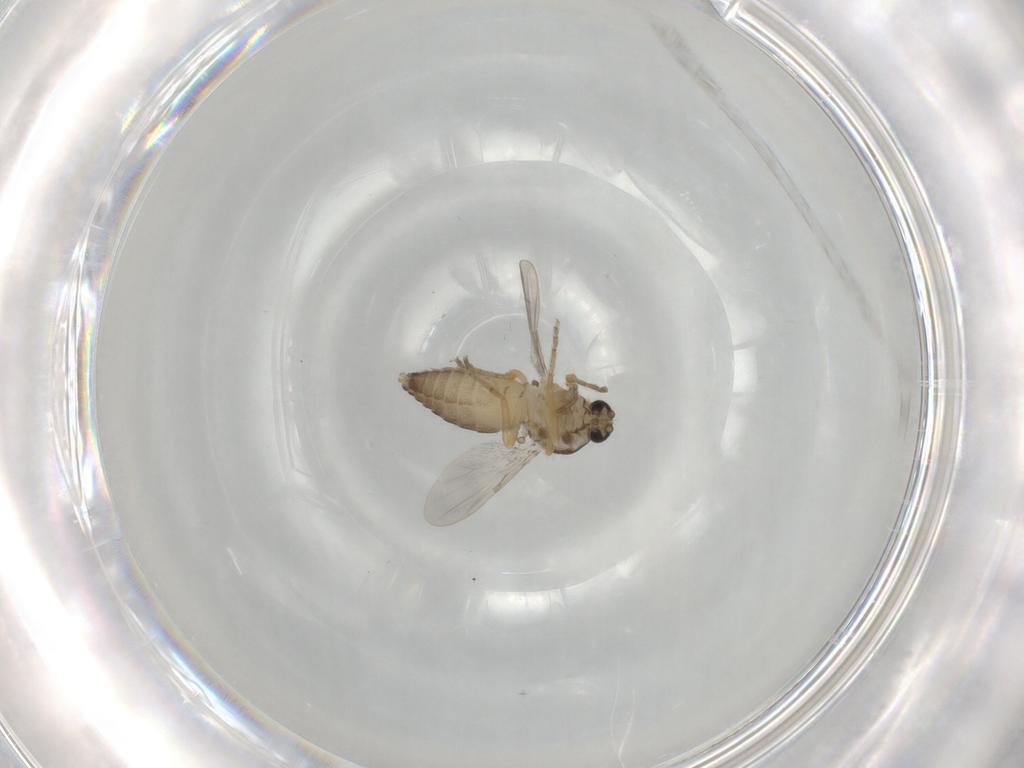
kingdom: Animalia
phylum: Arthropoda
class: Insecta
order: Diptera
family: Ceratopogonidae
